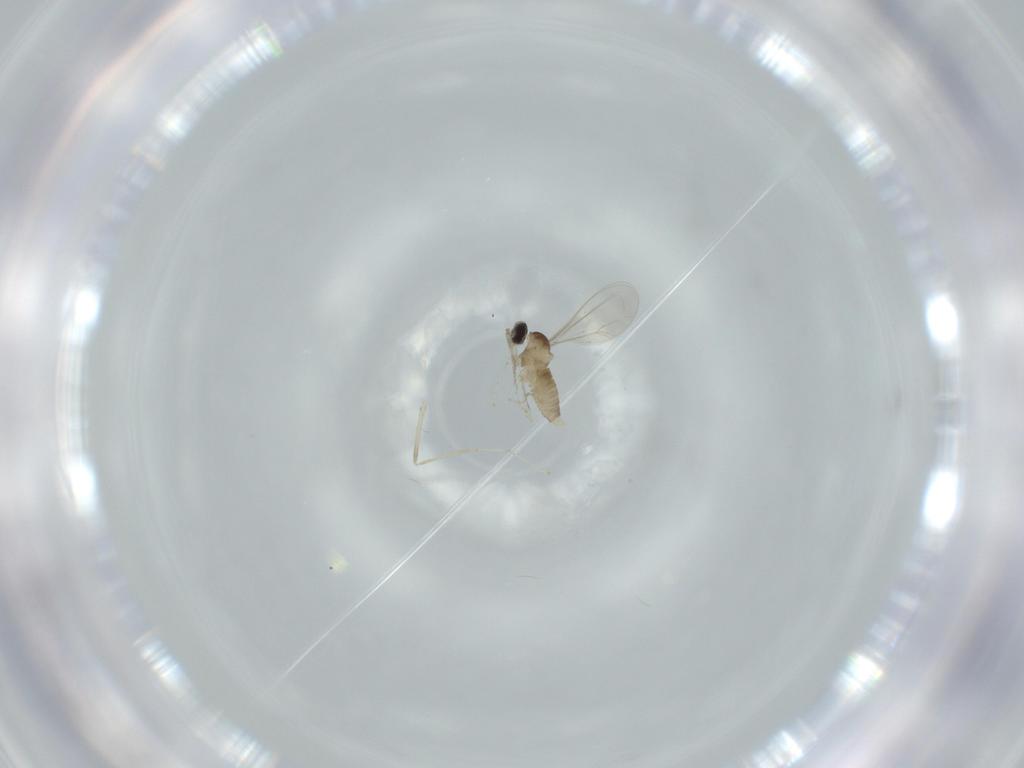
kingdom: Animalia
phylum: Arthropoda
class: Insecta
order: Diptera
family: Cecidomyiidae
